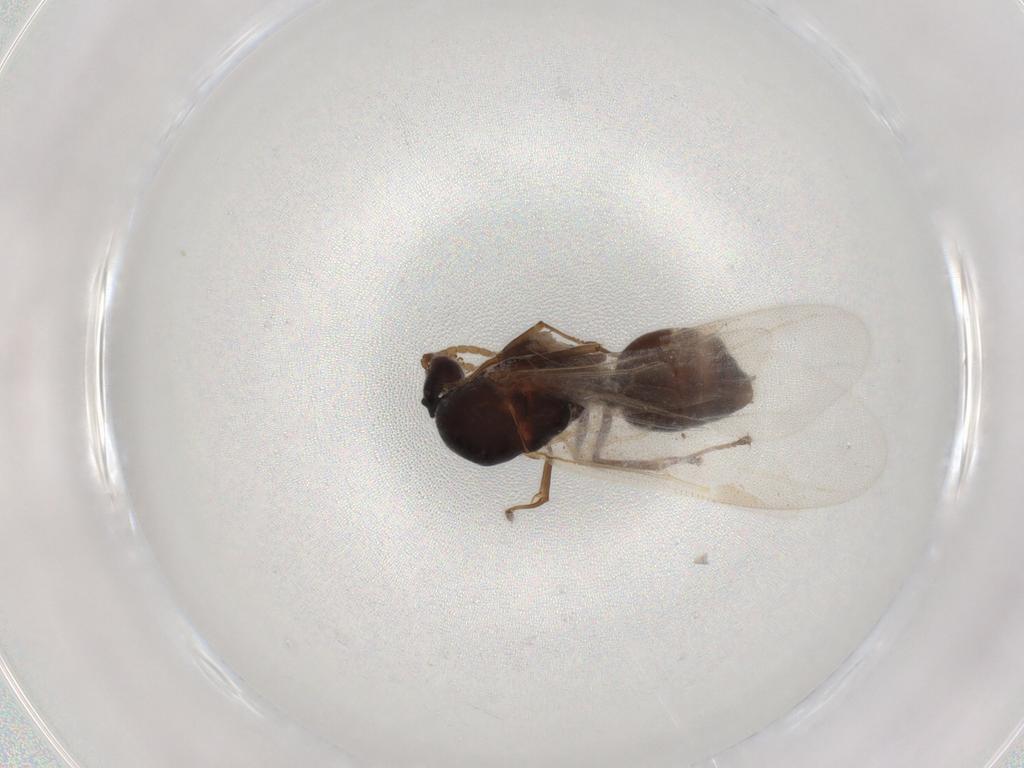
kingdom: Animalia
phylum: Arthropoda
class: Insecta
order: Hymenoptera
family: Formicidae
